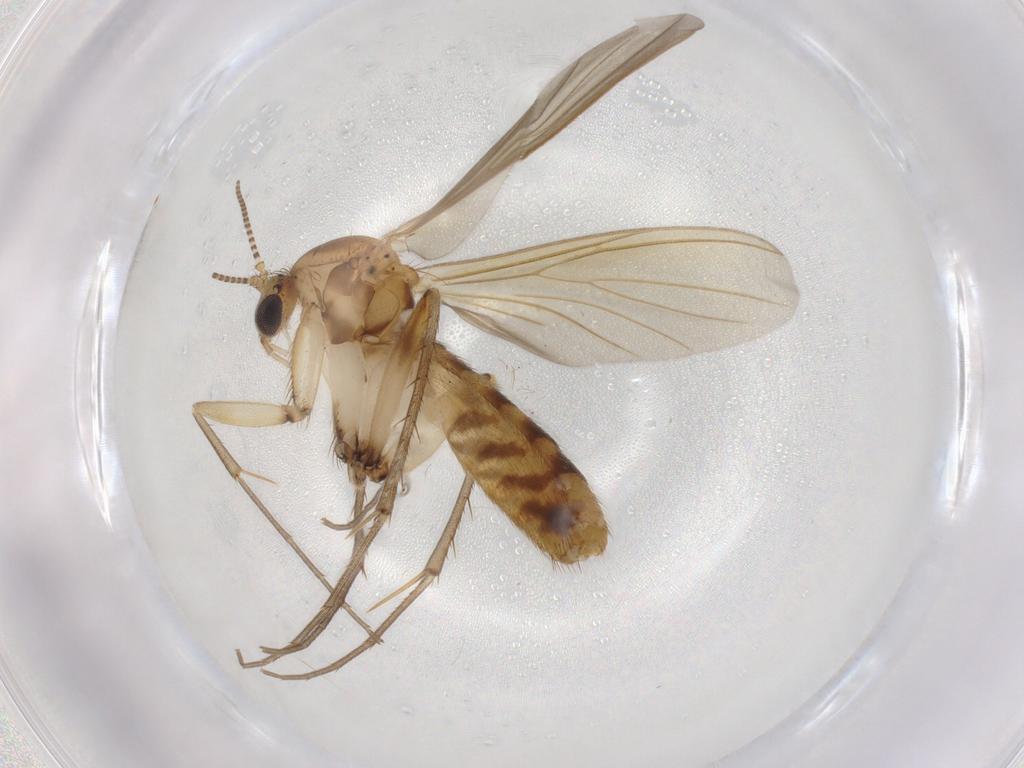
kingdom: Animalia
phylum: Arthropoda
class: Insecta
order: Diptera
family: Muscidae
